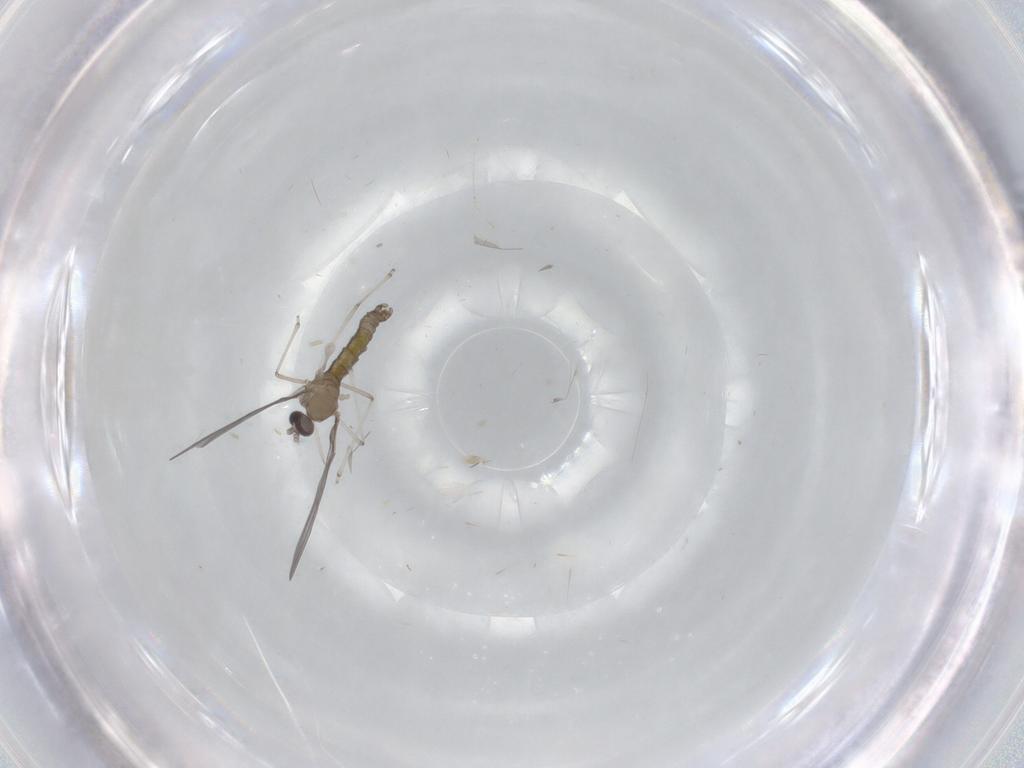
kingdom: Animalia
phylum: Arthropoda
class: Insecta
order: Diptera
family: Cecidomyiidae
